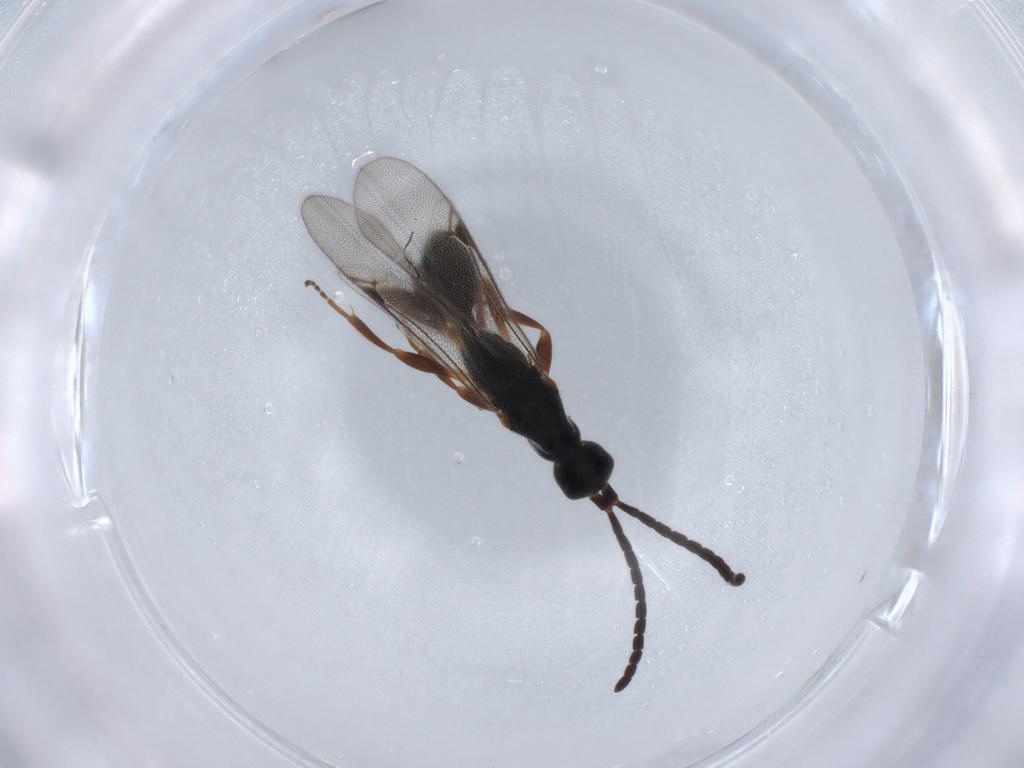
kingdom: Animalia
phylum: Arthropoda
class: Insecta
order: Hymenoptera
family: Proctotrupidae
